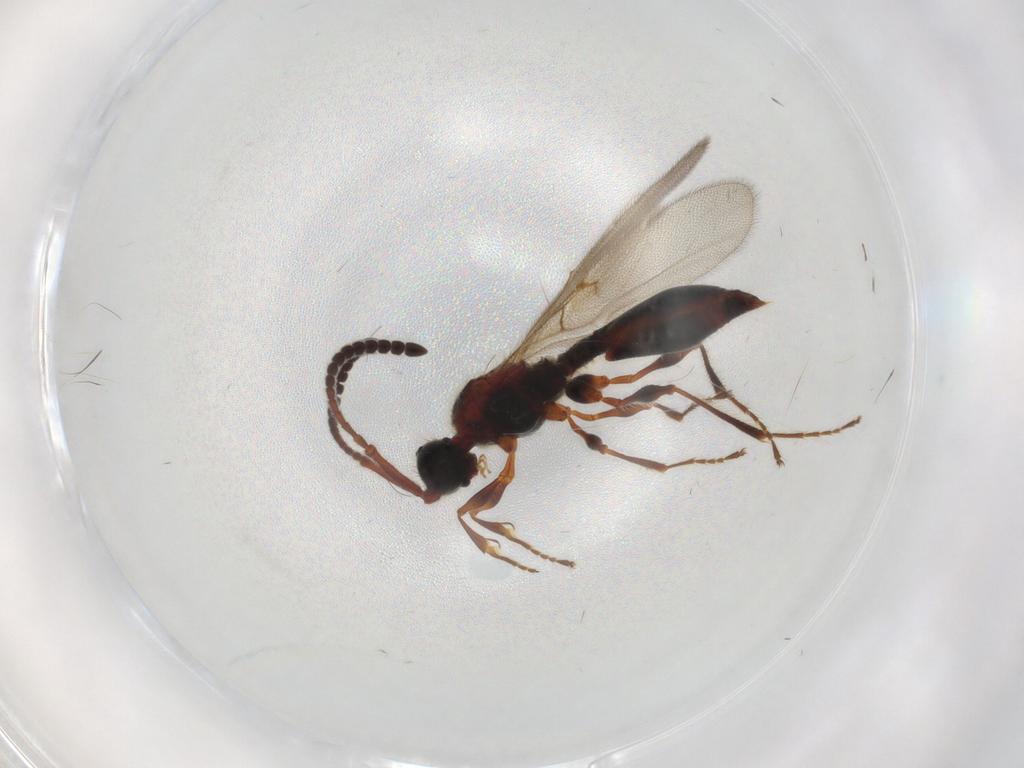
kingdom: Animalia
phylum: Arthropoda
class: Insecta
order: Hymenoptera
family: Diapriidae
